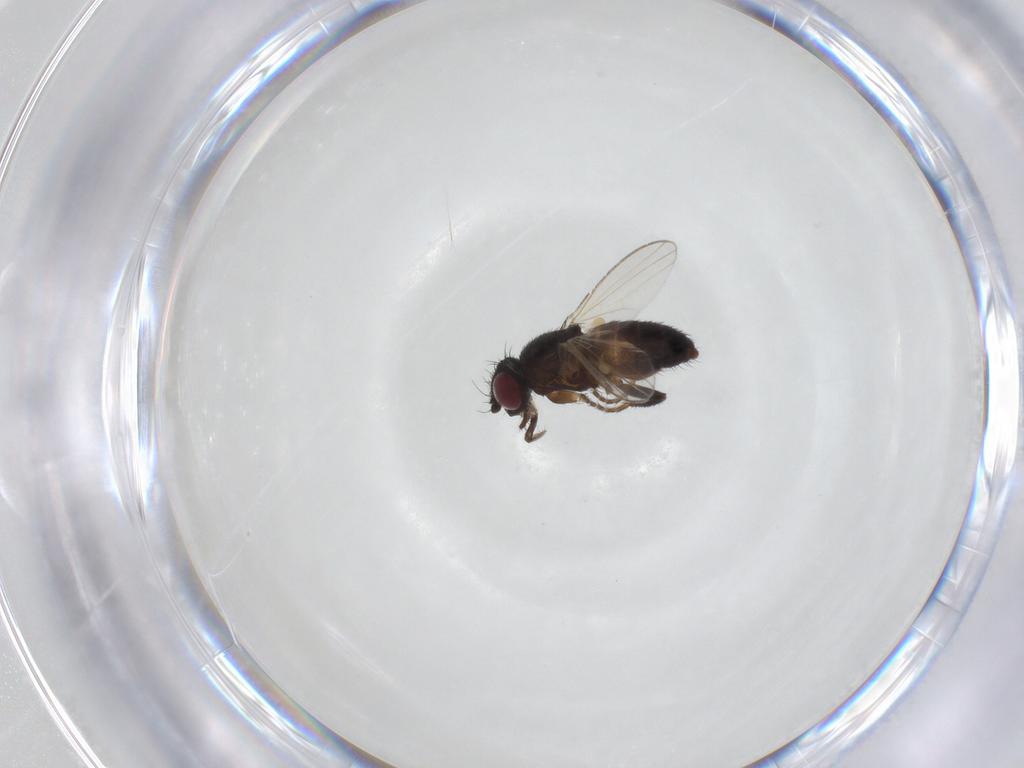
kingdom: Animalia
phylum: Arthropoda
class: Insecta
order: Diptera
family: Milichiidae
